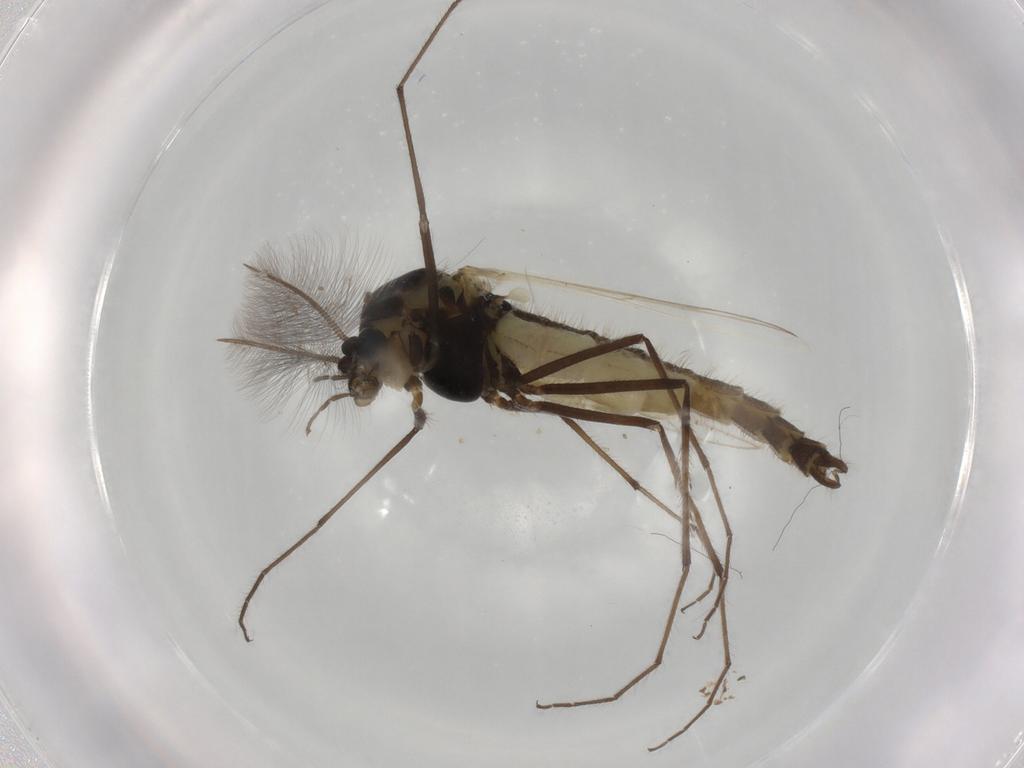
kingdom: Animalia
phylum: Arthropoda
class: Insecta
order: Diptera
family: Chironomidae
